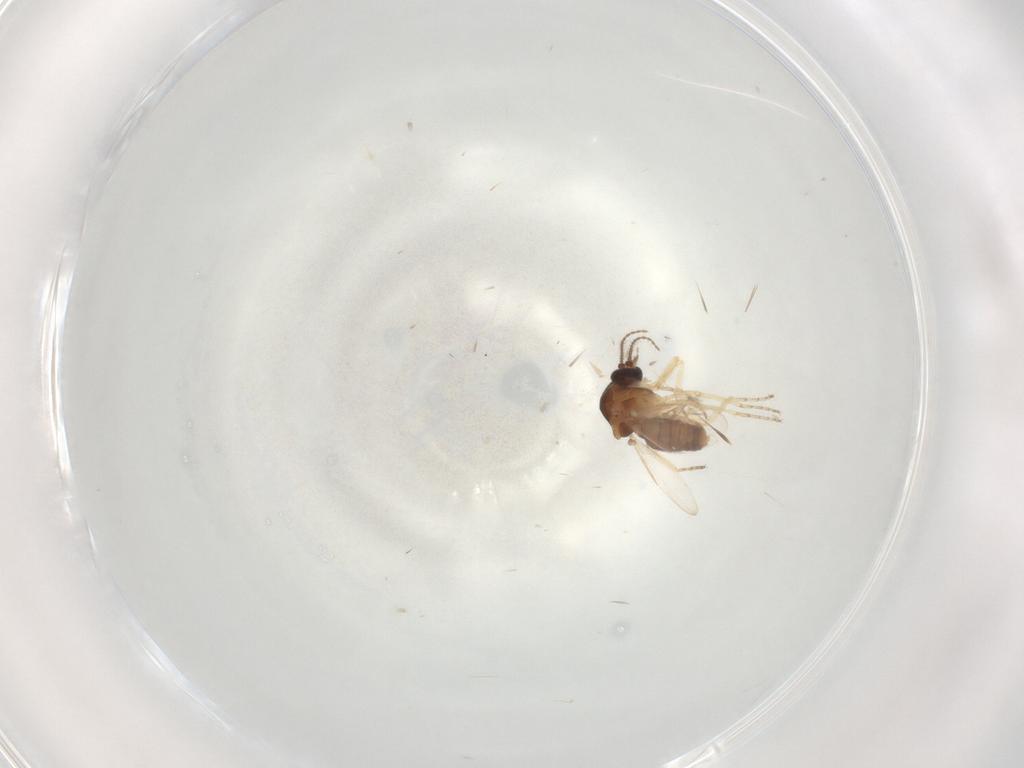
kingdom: Animalia
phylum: Arthropoda
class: Insecta
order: Diptera
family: Ceratopogonidae
